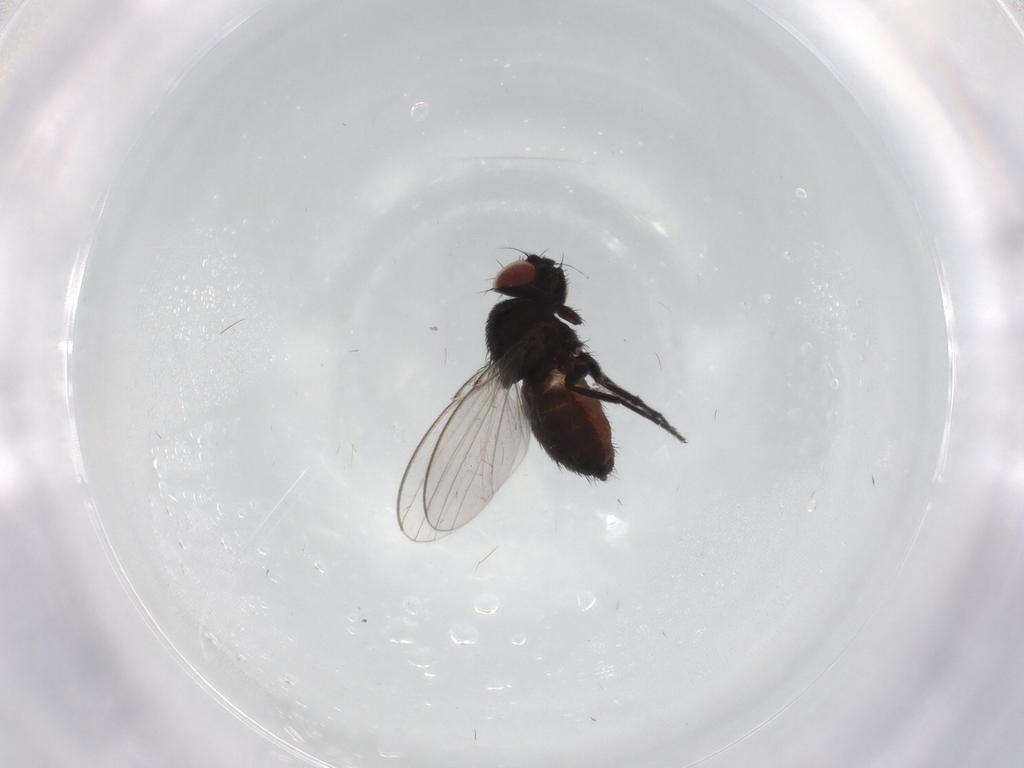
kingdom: Animalia
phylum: Arthropoda
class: Insecta
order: Diptera
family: Milichiidae
